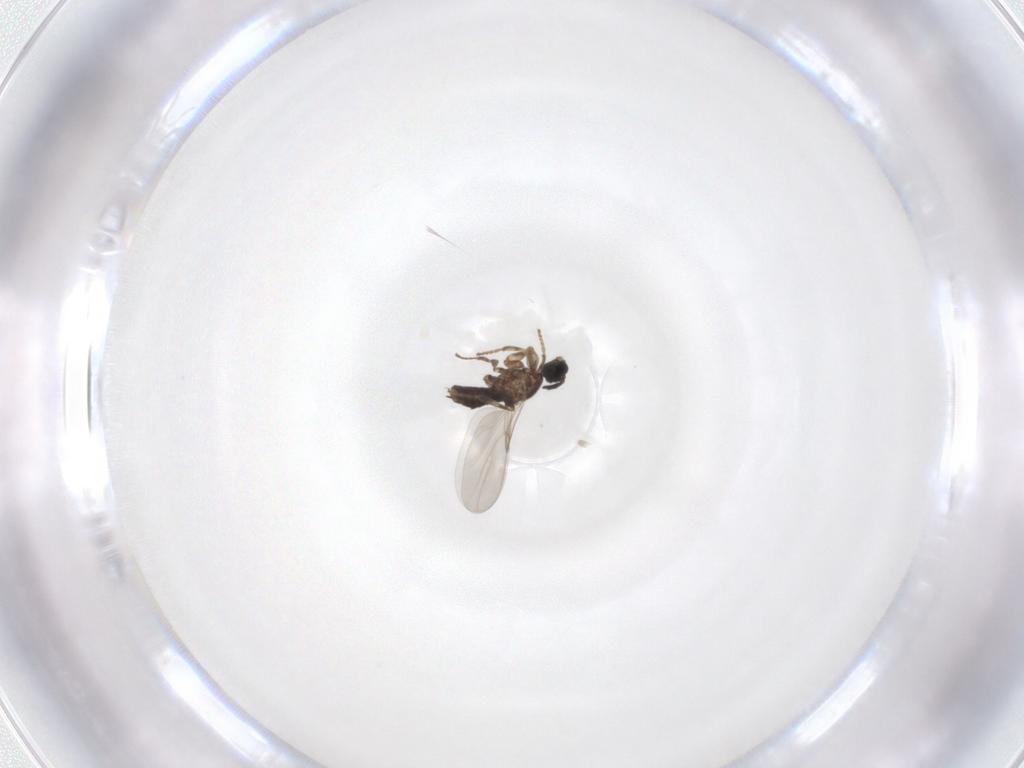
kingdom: Animalia
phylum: Arthropoda
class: Insecta
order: Diptera
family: Scatopsidae
